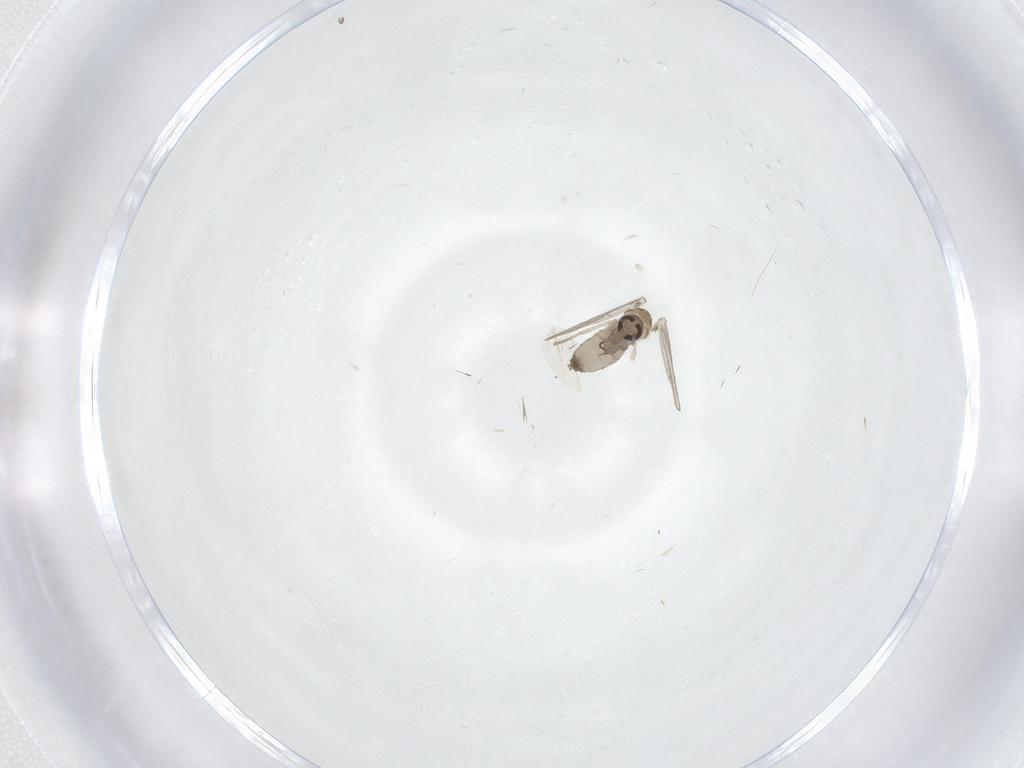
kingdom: Animalia
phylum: Arthropoda
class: Insecta
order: Diptera
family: Psychodidae
